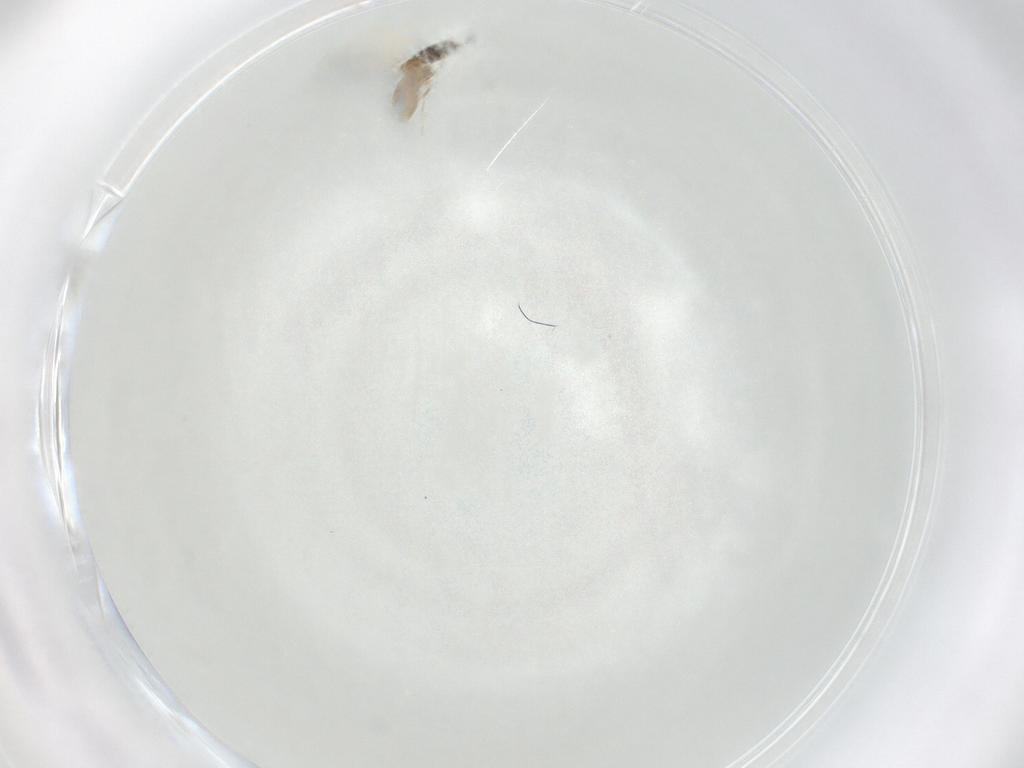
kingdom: Animalia
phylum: Arthropoda
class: Insecta
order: Diptera
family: Cecidomyiidae
